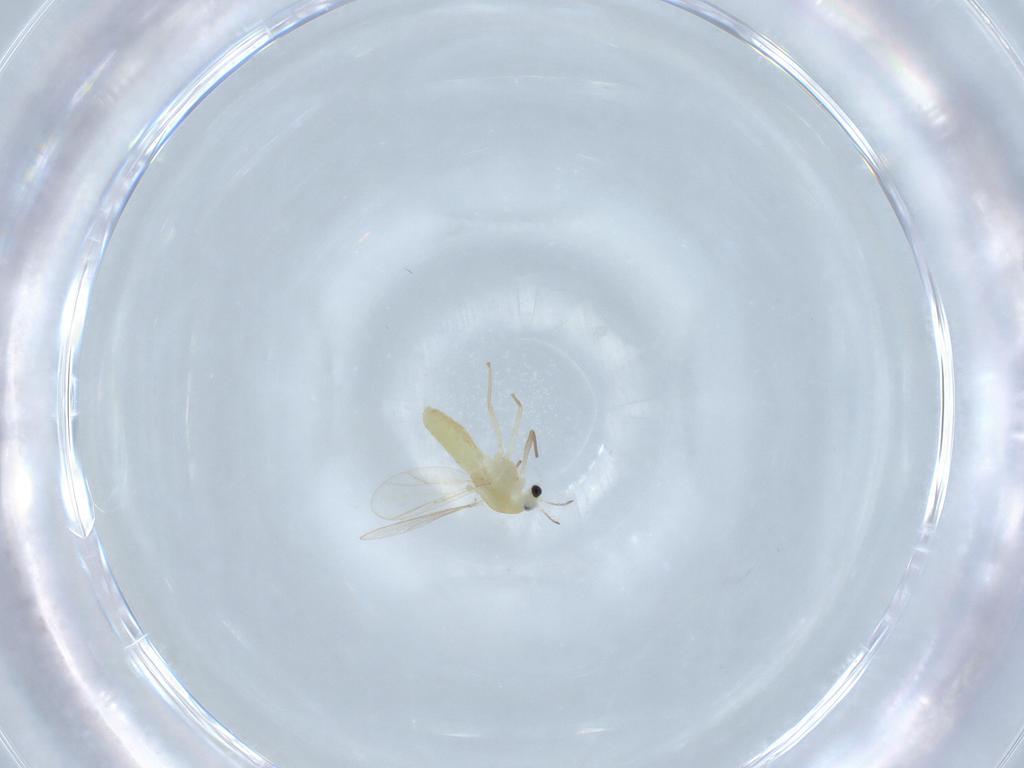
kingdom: Animalia
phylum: Arthropoda
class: Insecta
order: Diptera
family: Chironomidae
